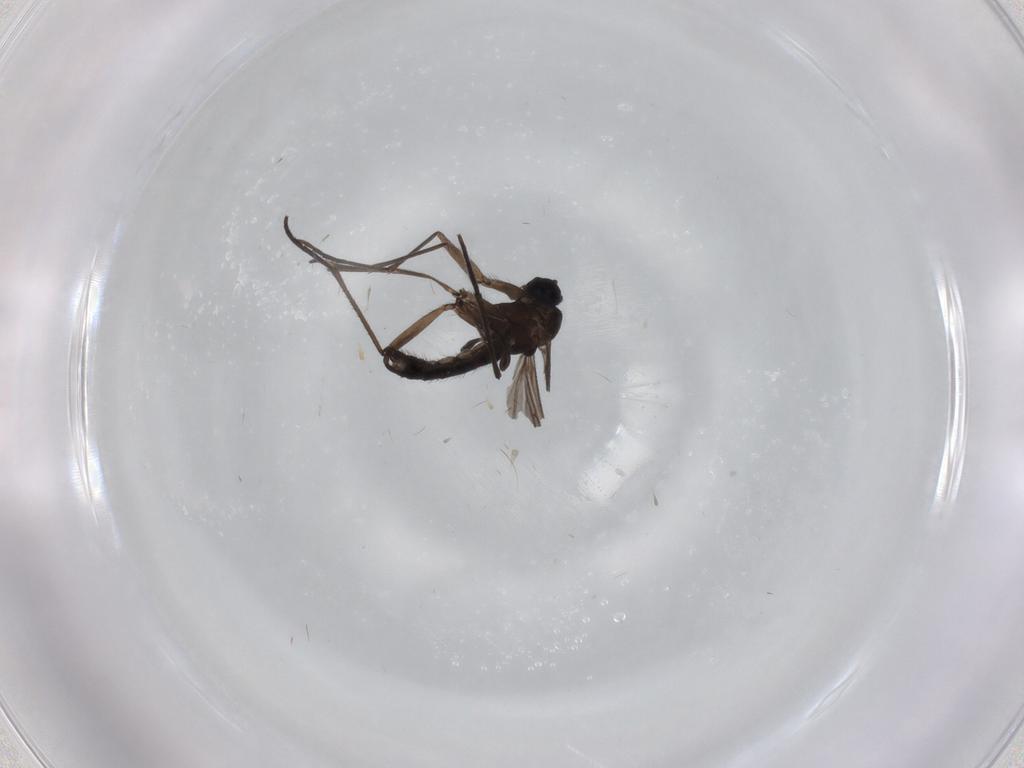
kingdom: Animalia
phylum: Arthropoda
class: Insecta
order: Diptera
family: Sciaridae
